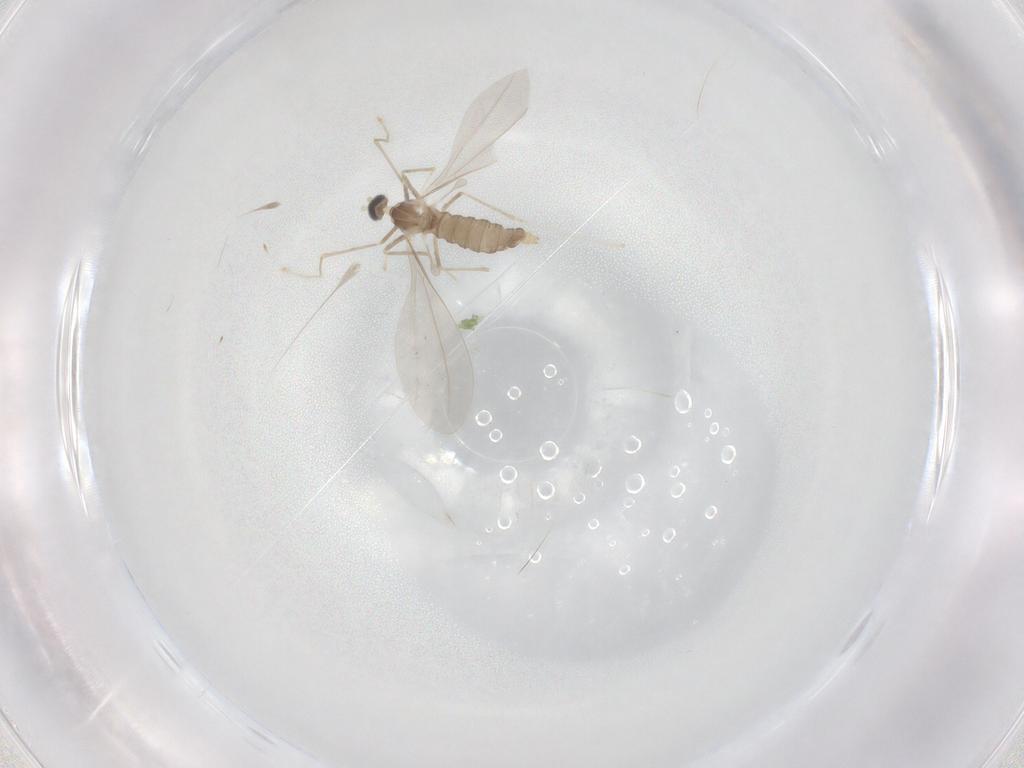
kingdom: Animalia
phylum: Arthropoda
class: Insecta
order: Diptera
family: Cecidomyiidae
